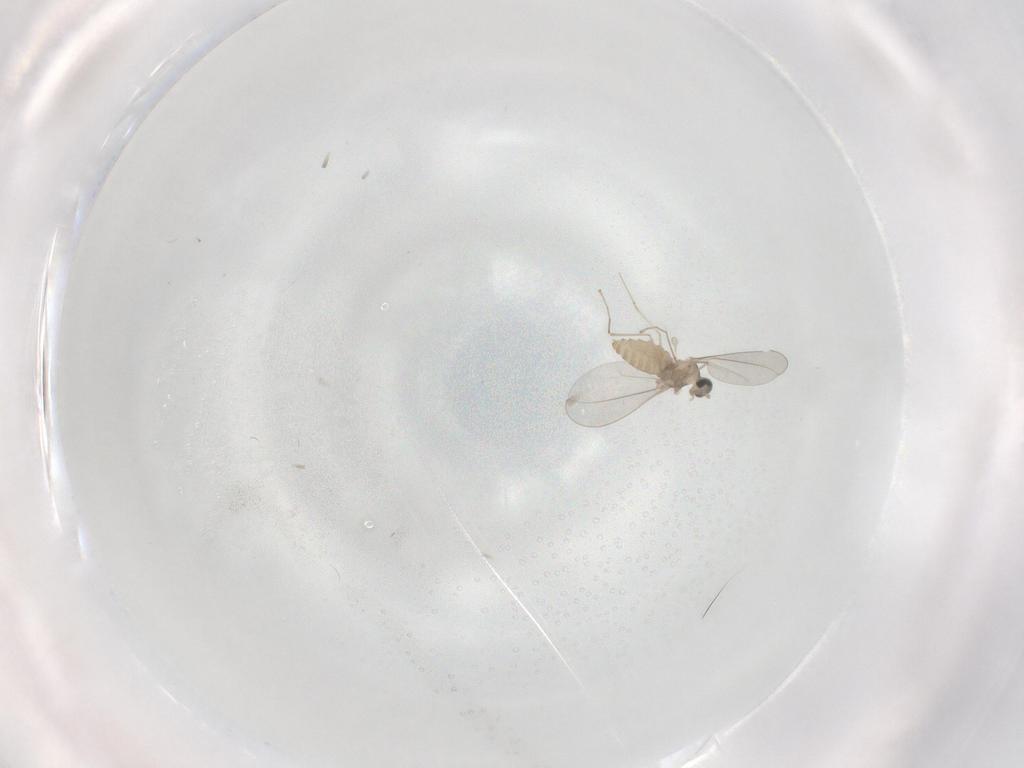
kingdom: Animalia
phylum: Arthropoda
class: Insecta
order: Diptera
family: Cecidomyiidae
